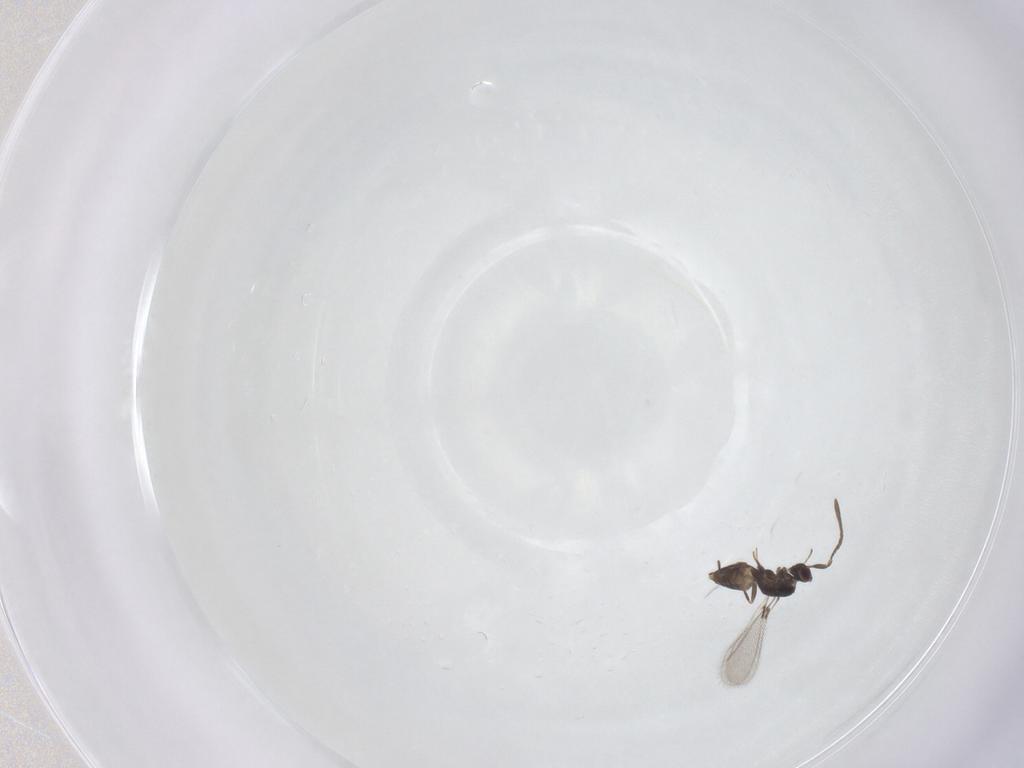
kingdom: Animalia
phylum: Arthropoda
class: Insecta
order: Hymenoptera
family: Mymaridae
